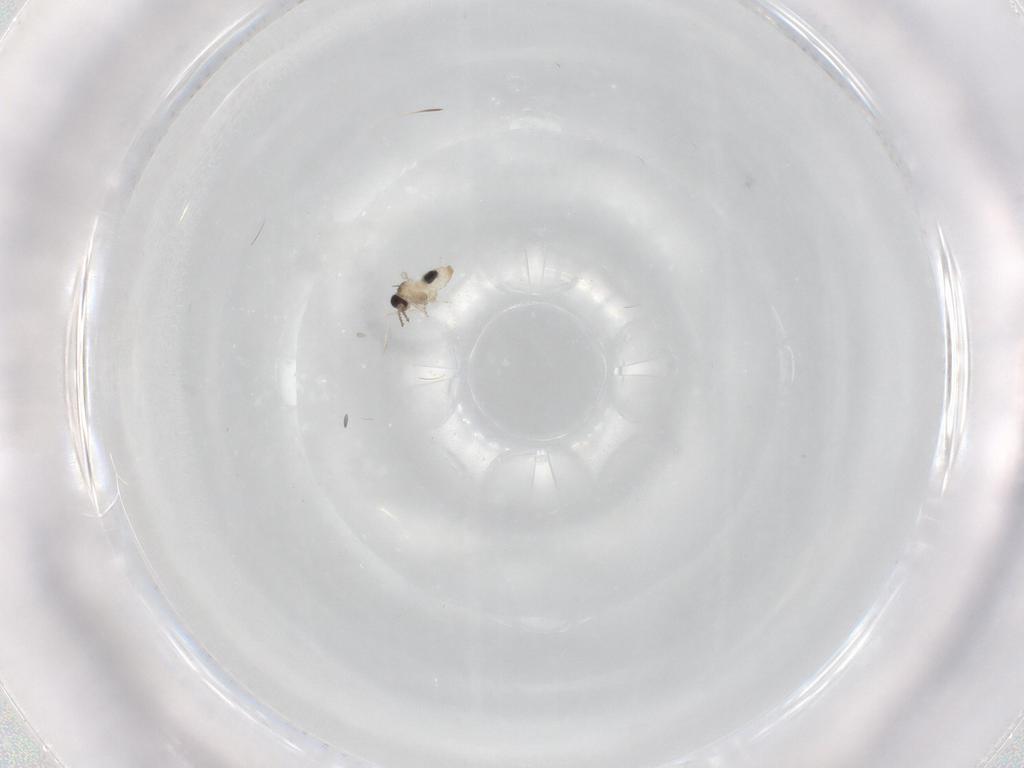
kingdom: Animalia
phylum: Arthropoda
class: Insecta
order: Diptera
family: Cecidomyiidae
